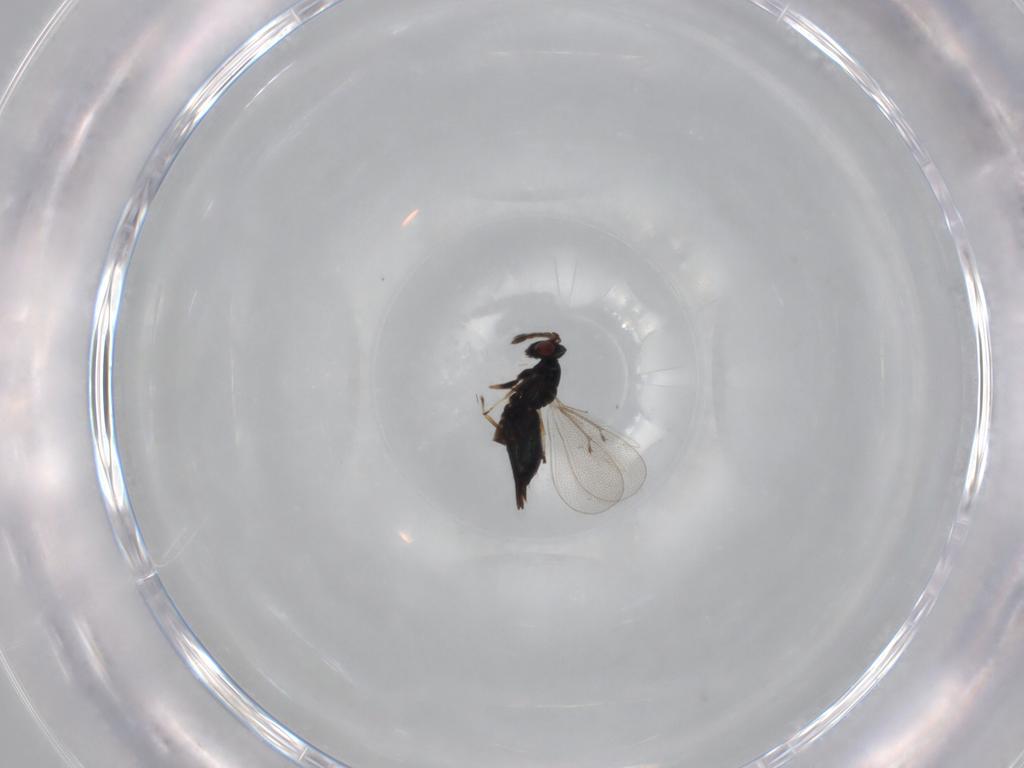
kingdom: Animalia
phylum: Arthropoda
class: Insecta
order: Hymenoptera
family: Eulophidae
